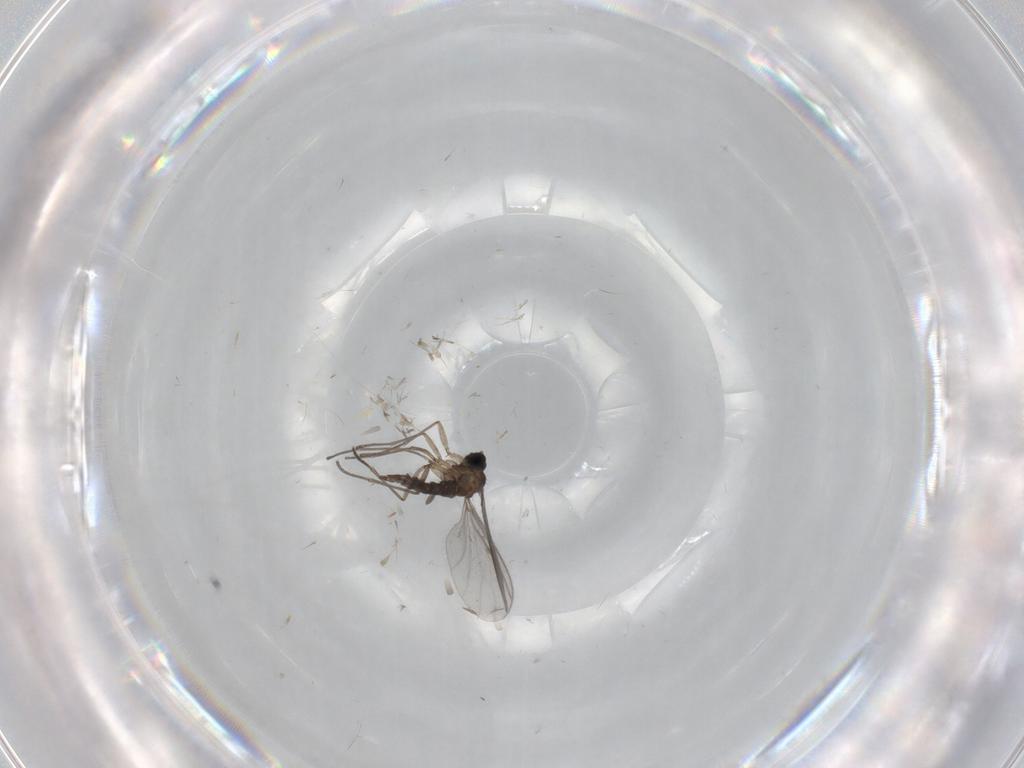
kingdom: Animalia
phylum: Arthropoda
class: Insecta
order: Diptera
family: Sciaridae
